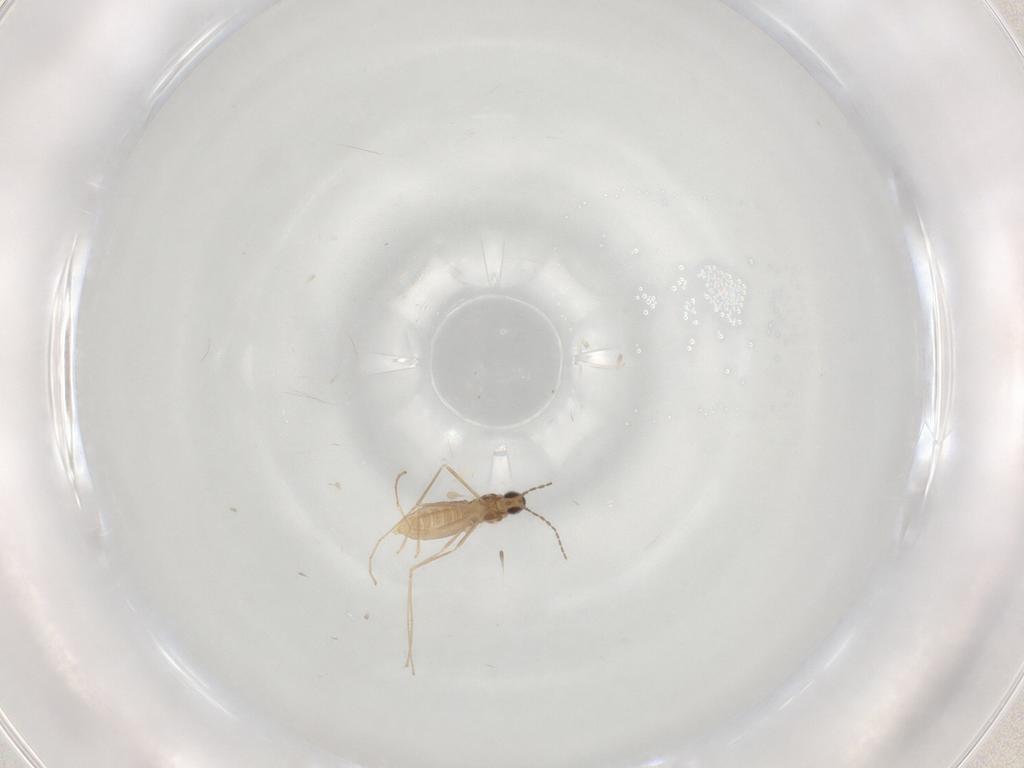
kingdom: Animalia
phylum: Arthropoda
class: Insecta
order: Diptera
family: Cecidomyiidae
